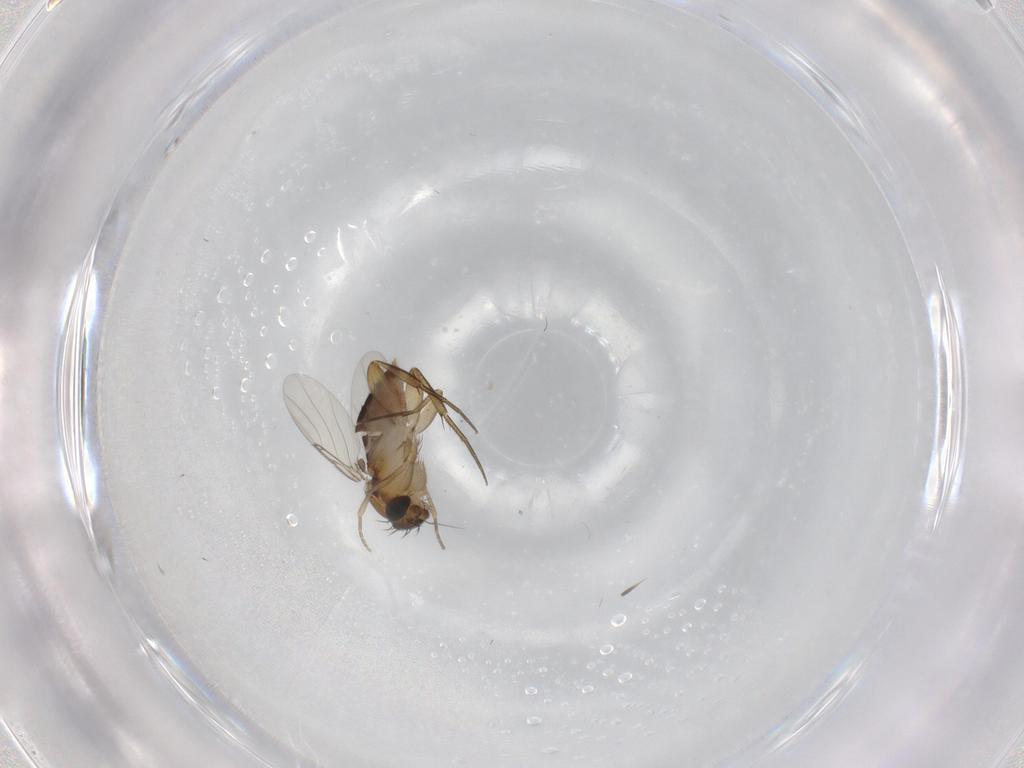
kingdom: Animalia
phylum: Arthropoda
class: Insecta
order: Diptera
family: Phoridae
